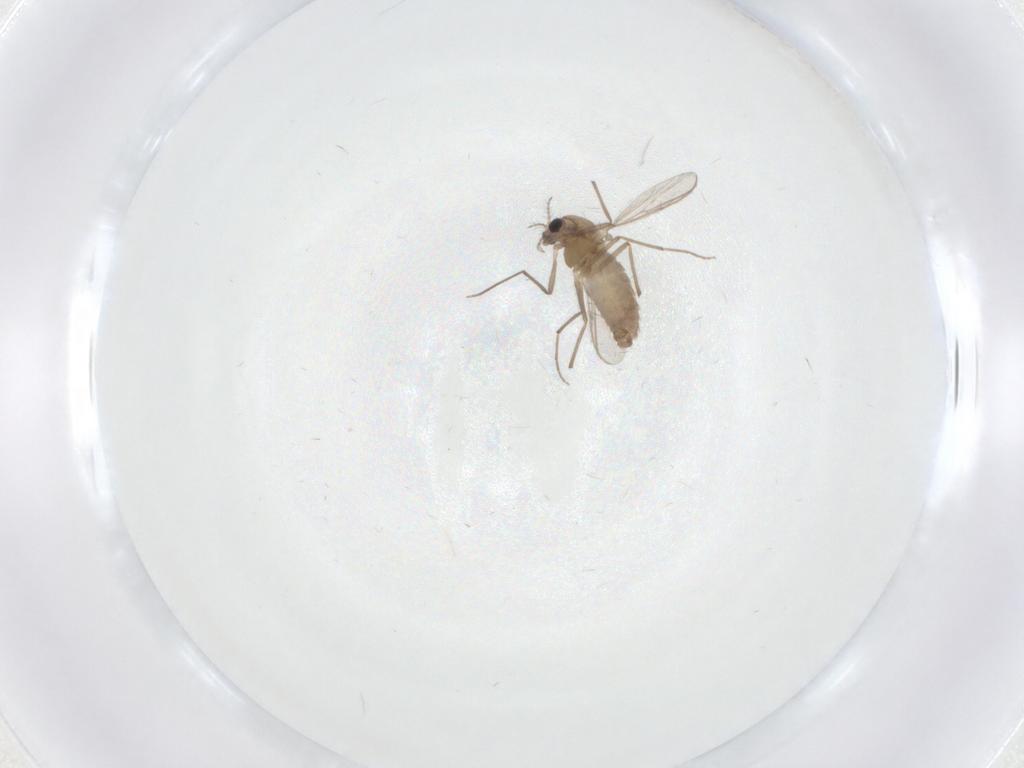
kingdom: Animalia
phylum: Arthropoda
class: Insecta
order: Diptera
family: Chironomidae
